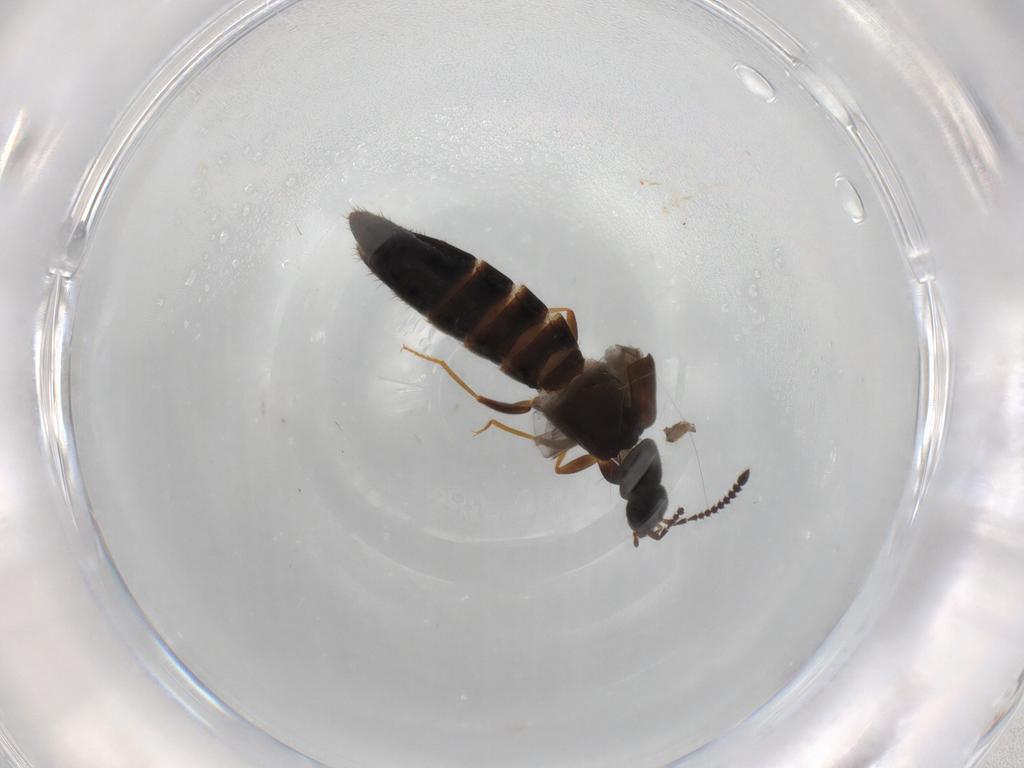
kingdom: Animalia
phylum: Arthropoda
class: Insecta
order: Coleoptera
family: Staphylinidae
